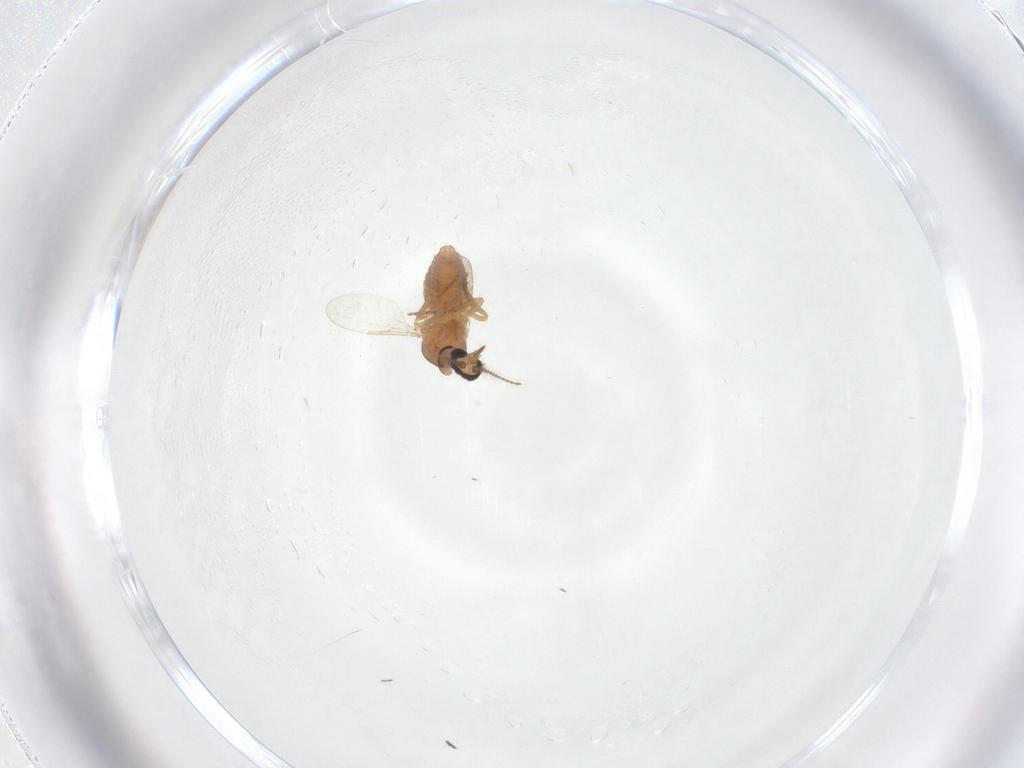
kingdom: Animalia
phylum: Arthropoda
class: Insecta
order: Diptera
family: Ceratopogonidae
